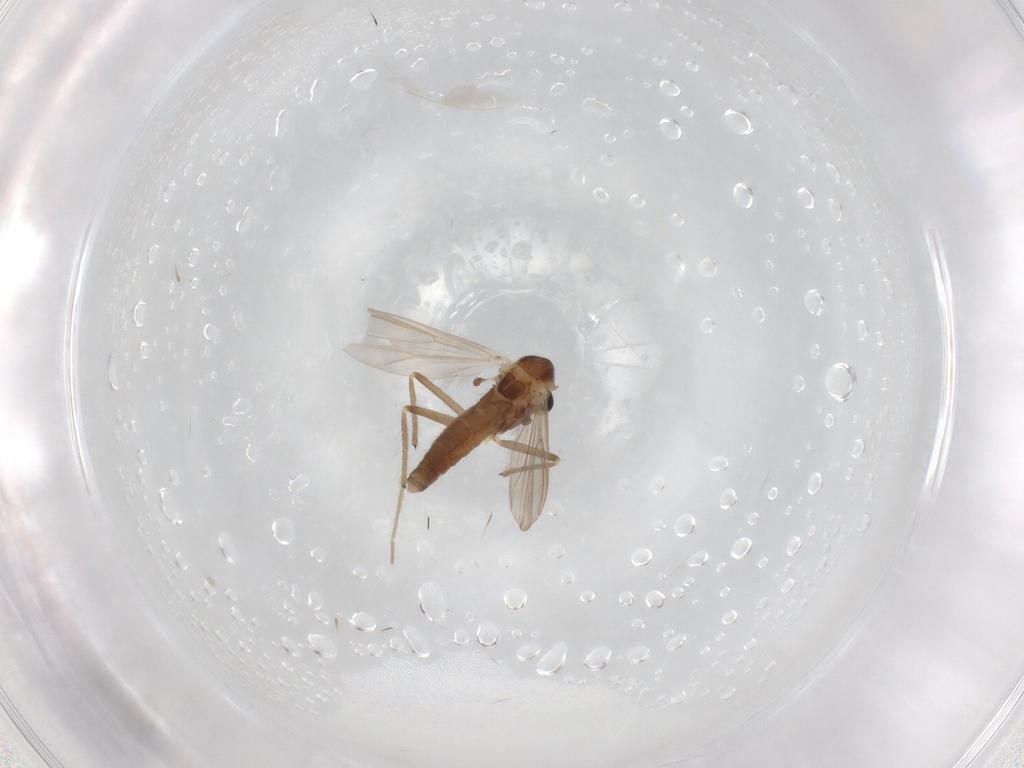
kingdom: Animalia
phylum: Arthropoda
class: Insecta
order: Diptera
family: Chironomidae
